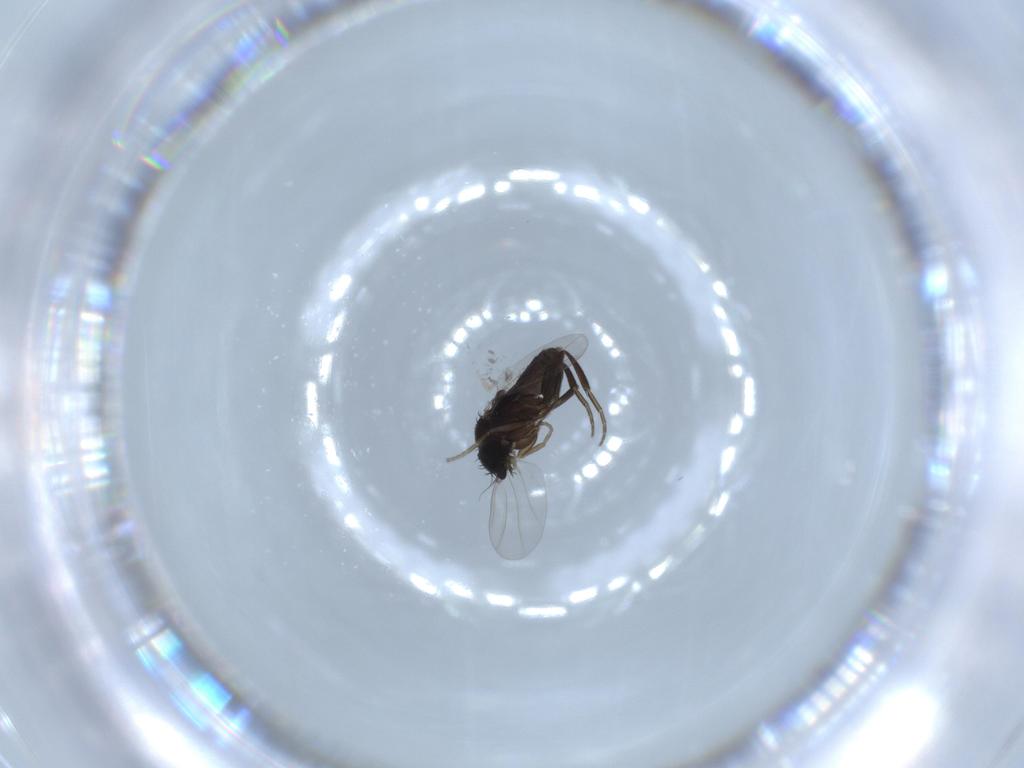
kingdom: Animalia
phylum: Arthropoda
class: Insecta
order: Diptera
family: Phoridae
